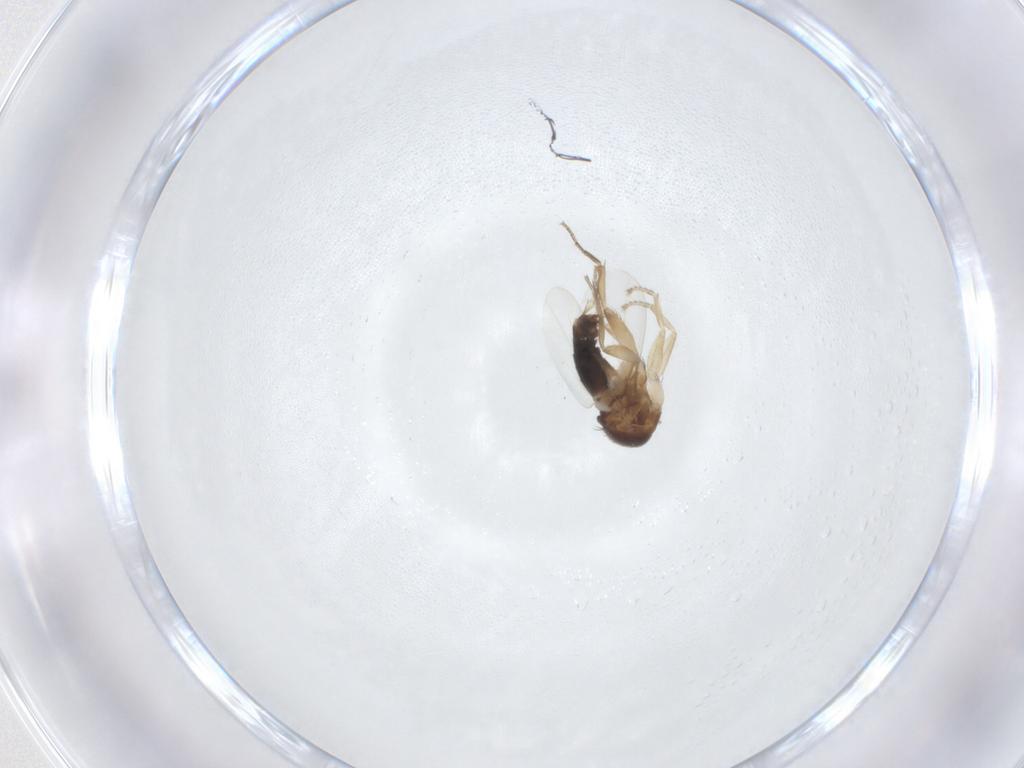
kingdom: Animalia
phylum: Arthropoda
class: Insecta
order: Diptera
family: Phoridae
